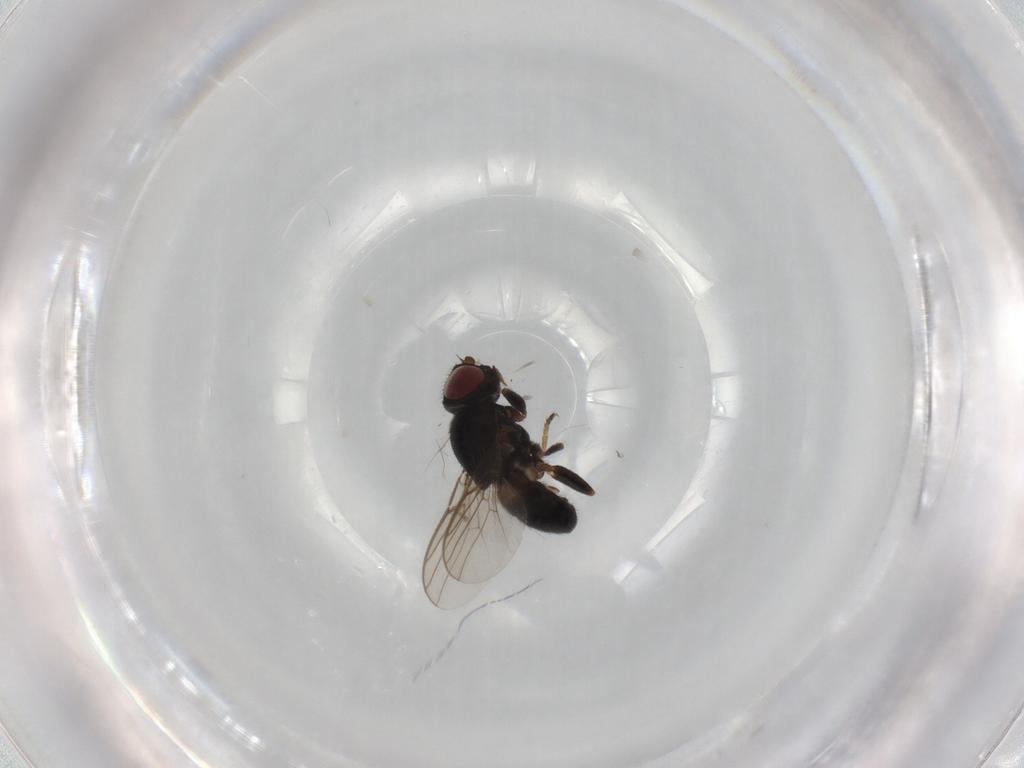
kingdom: Animalia
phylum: Arthropoda
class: Insecta
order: Diptera
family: Chloropidae
